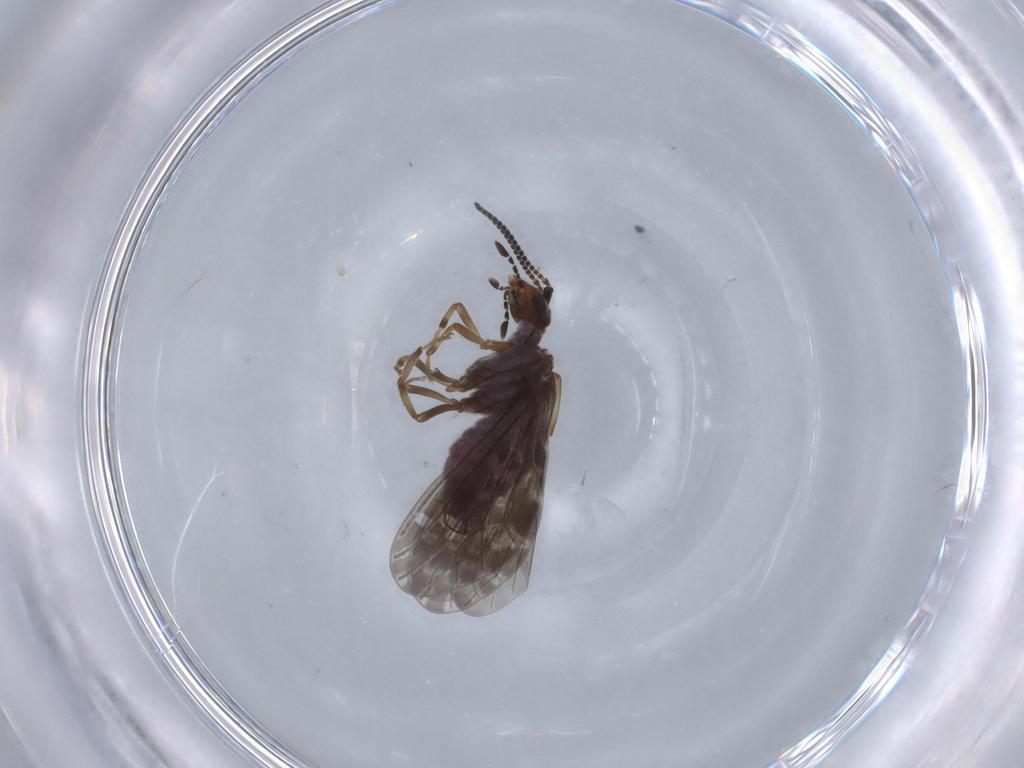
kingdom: Animalia
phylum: Arthropoda
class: Insecta
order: Neuroptera
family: Coniopterygidae
